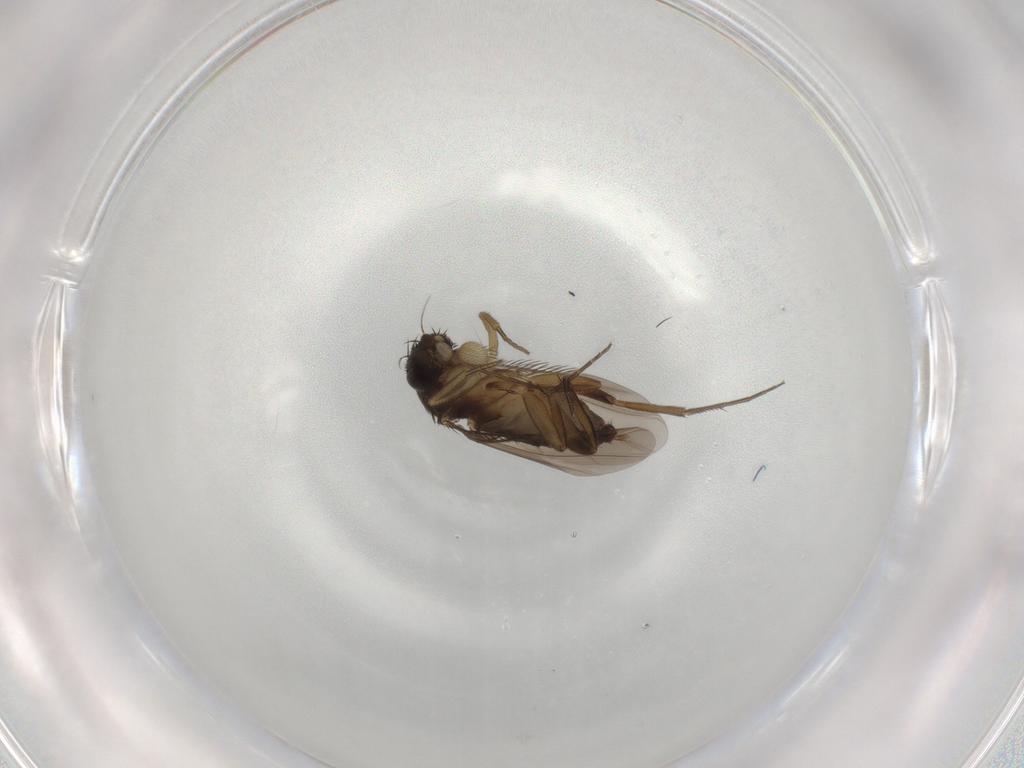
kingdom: Animalia
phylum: Arthropoda
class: Insecta
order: Diptera
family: Phoridae
